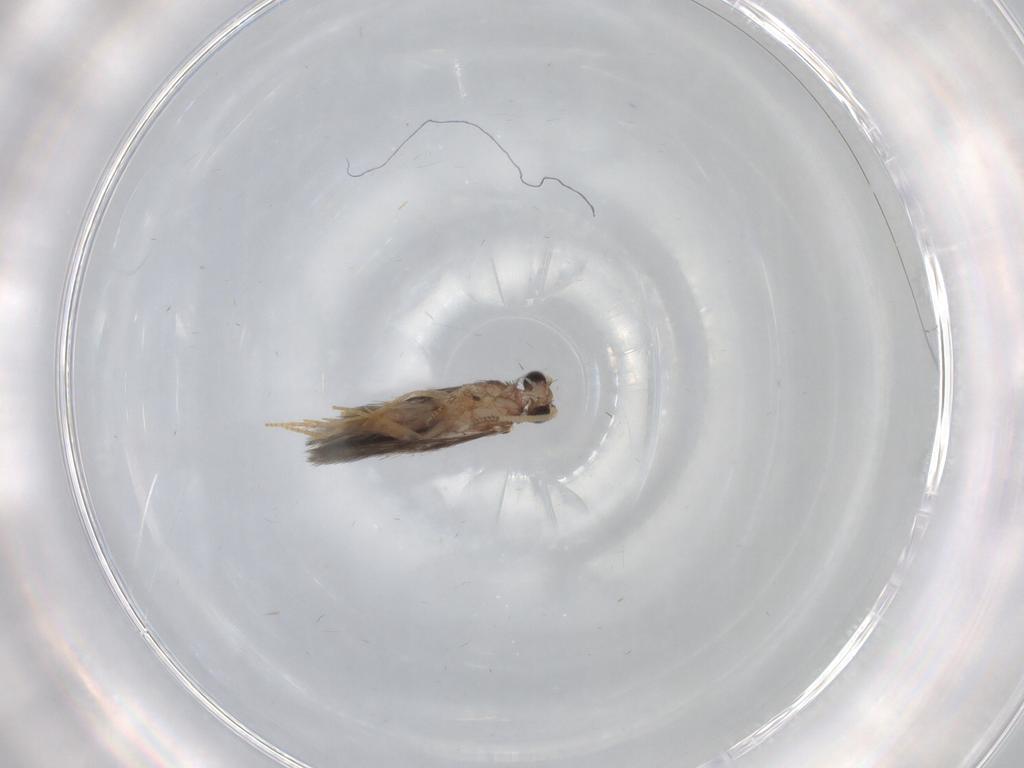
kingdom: Animalia
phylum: Arthropoda
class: Insecta
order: Trichoptera
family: Hydroptilidae
